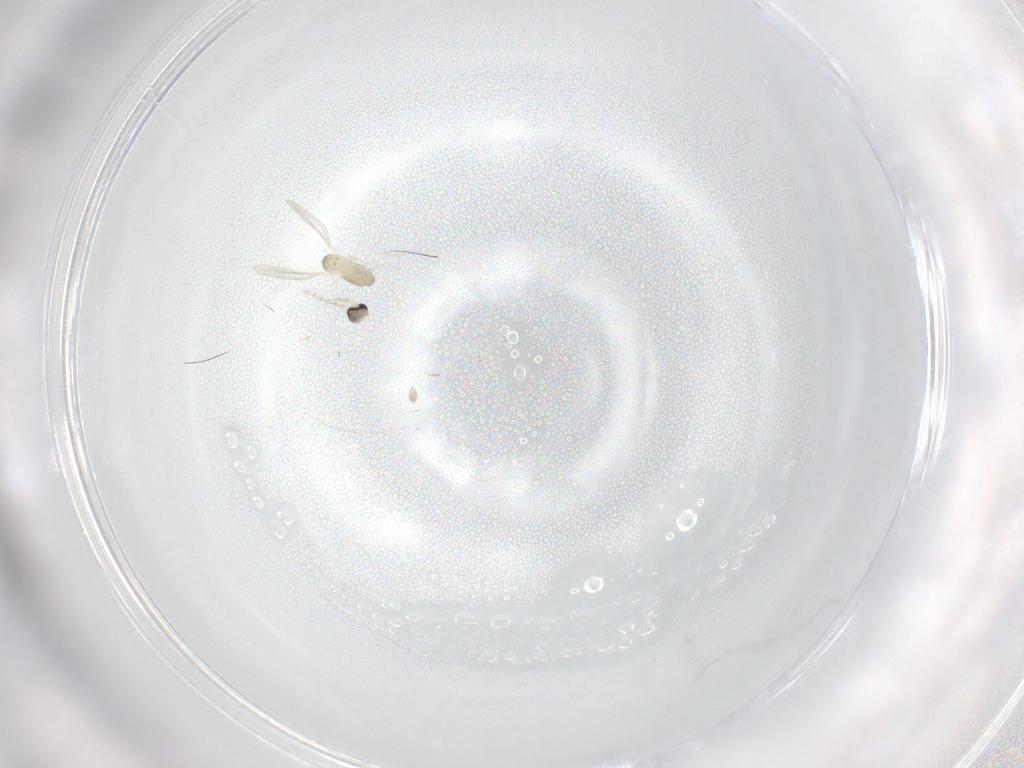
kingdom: Animalia
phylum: Arthropoda
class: Insecta
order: Diptera
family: Cecidomyiidae
